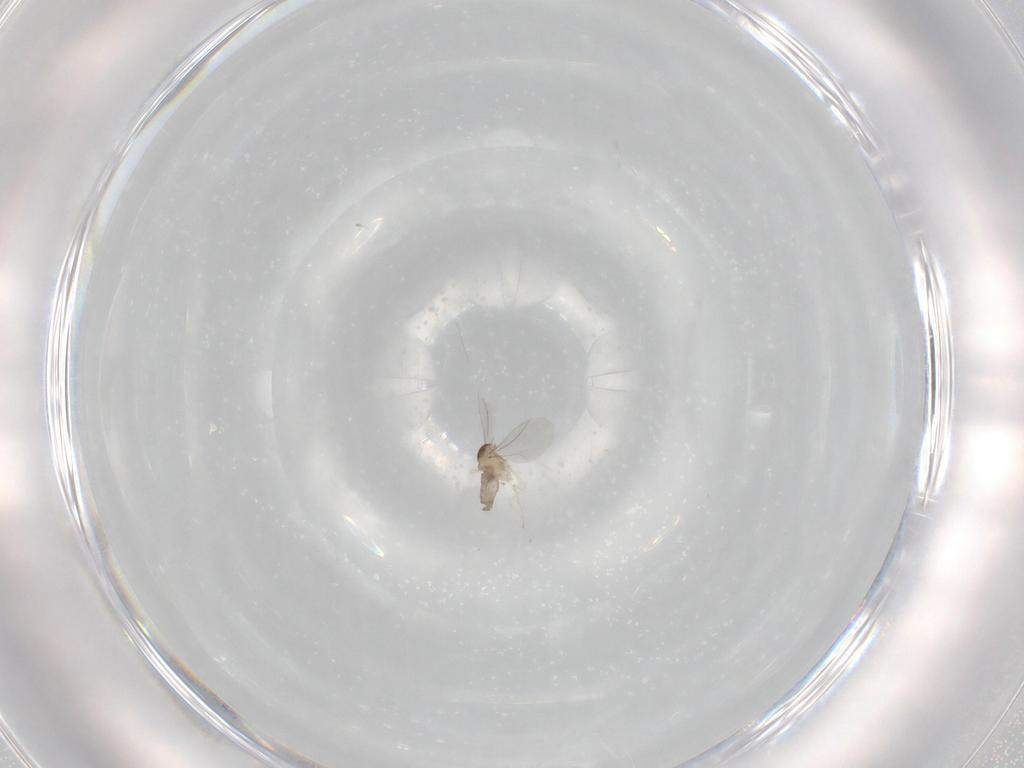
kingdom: Animalia
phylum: Arthropoda
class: Insecta
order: Diptera
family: Cecidomyiidae
